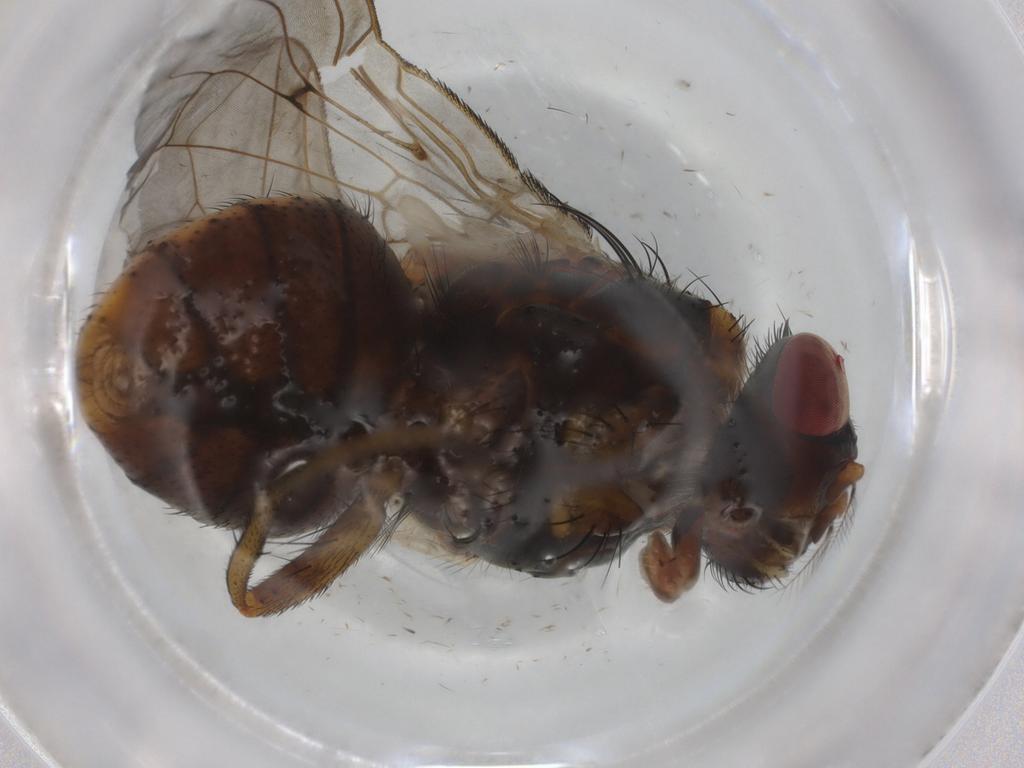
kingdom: Animalia
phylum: Arthropoda
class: Insecta
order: Diptera
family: Tachinidae
